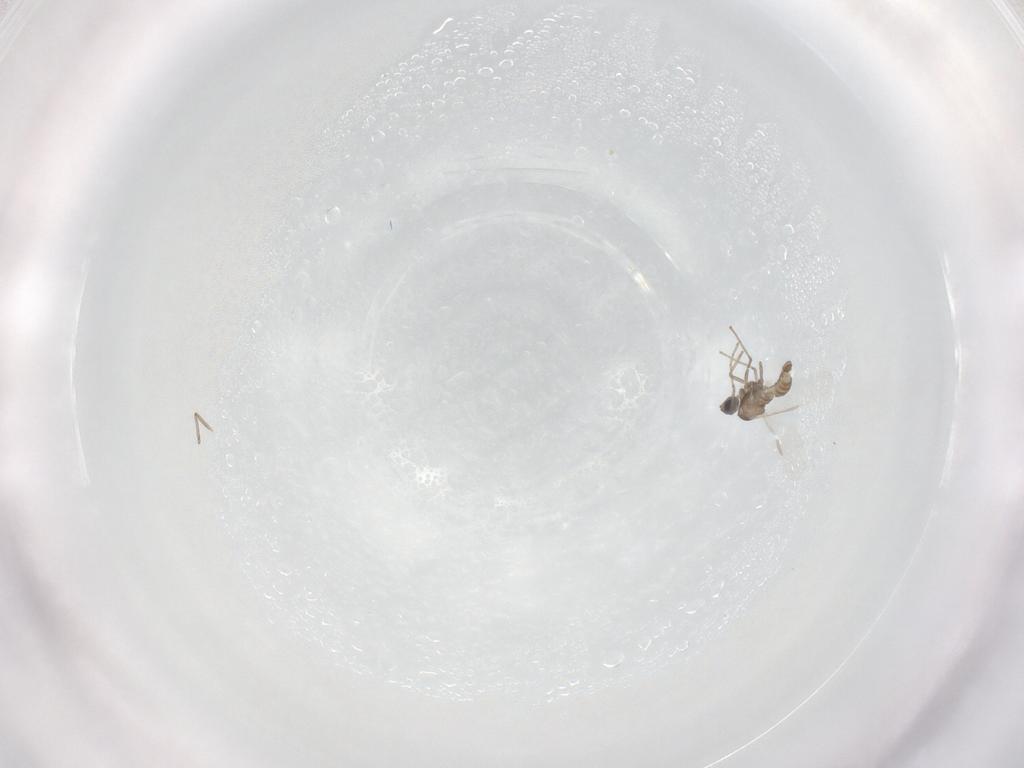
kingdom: Animalia
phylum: Arthropoda
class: Insecta
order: Diptera
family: Cecidomyiidae
